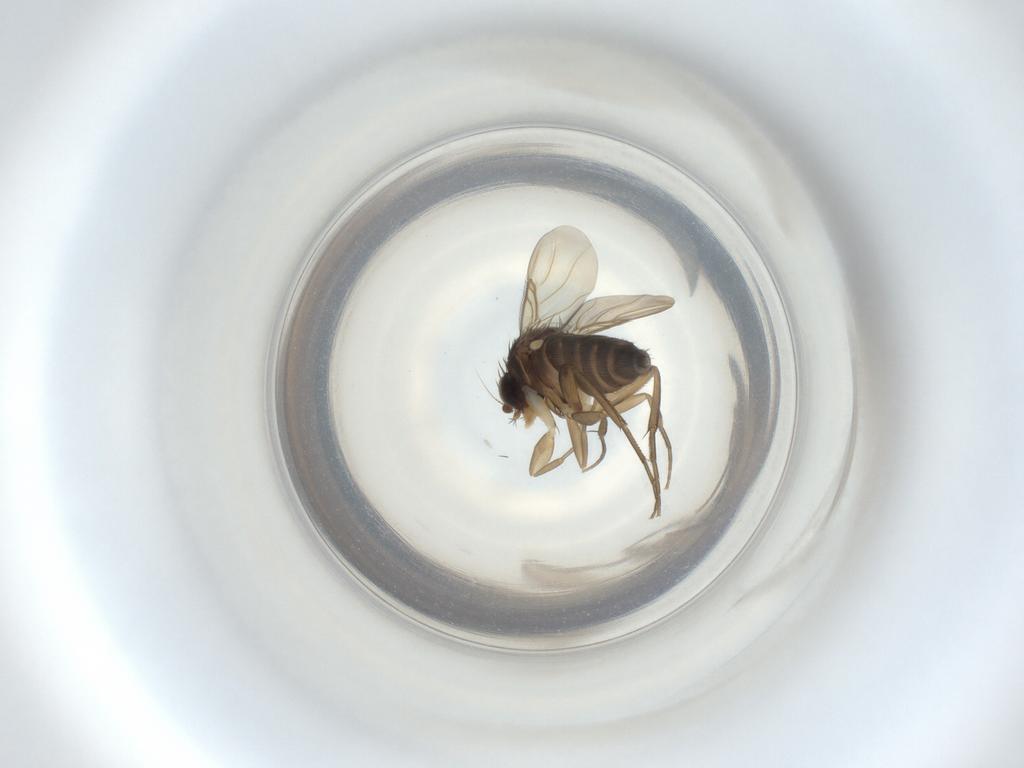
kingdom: Animalia
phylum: Arthropoda
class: Insecta
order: Diptera
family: Phoridae
